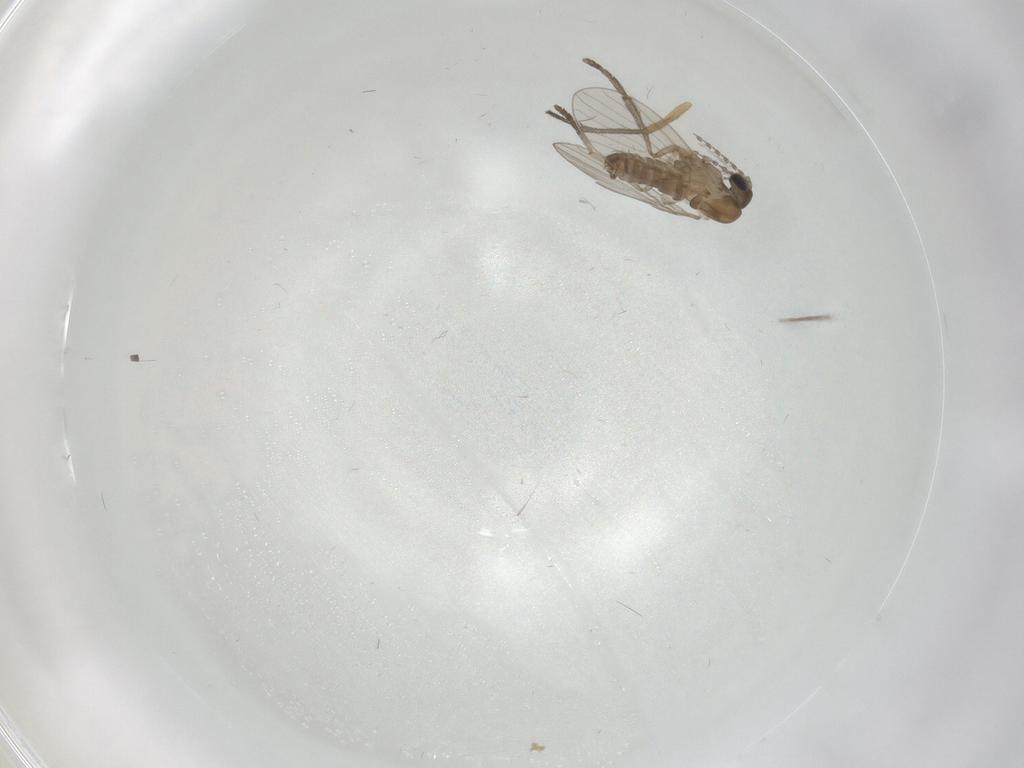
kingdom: Animalia
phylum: Arthropoda
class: Insecta
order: Diptera
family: Psychodidae
